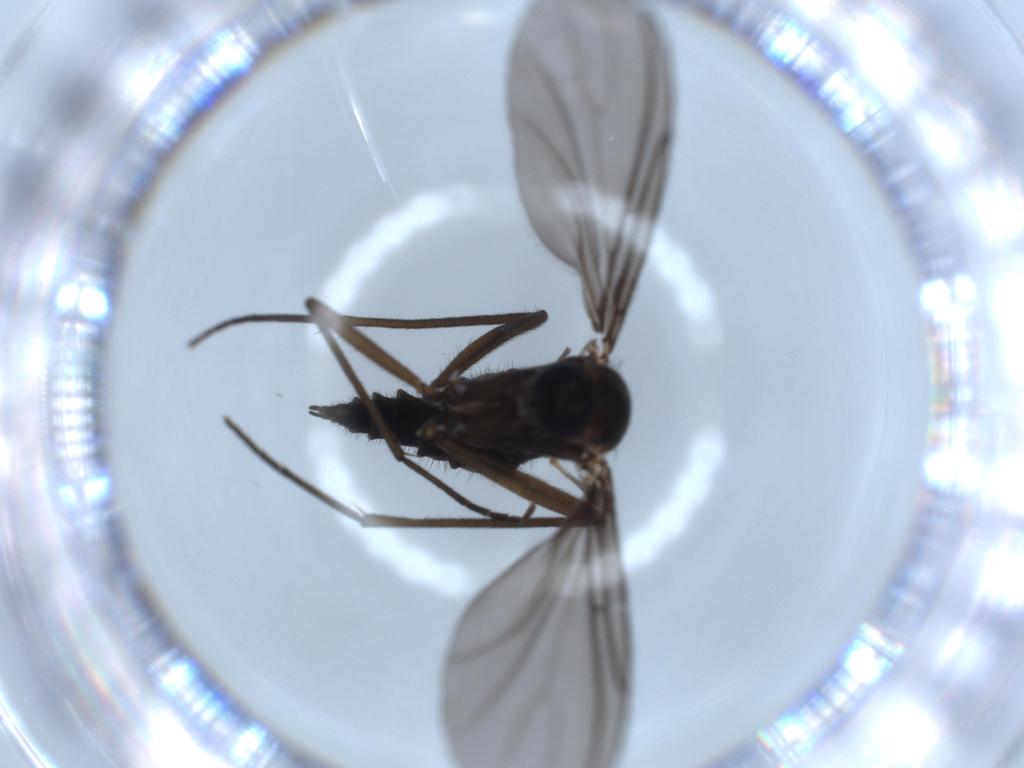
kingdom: Animalia
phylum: Arthropoda
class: Insecta
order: Diptera
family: Sciaridae
